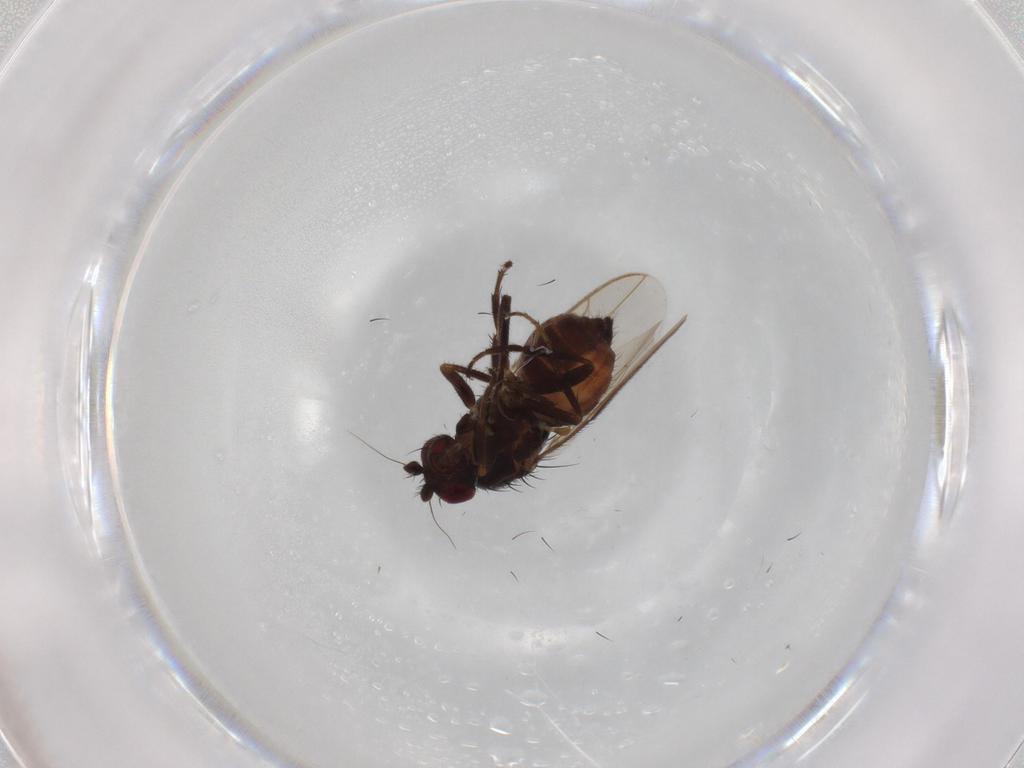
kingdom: Animalia
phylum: Arthropoda
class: Insecta
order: Diptera
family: Sphaeroceridae
